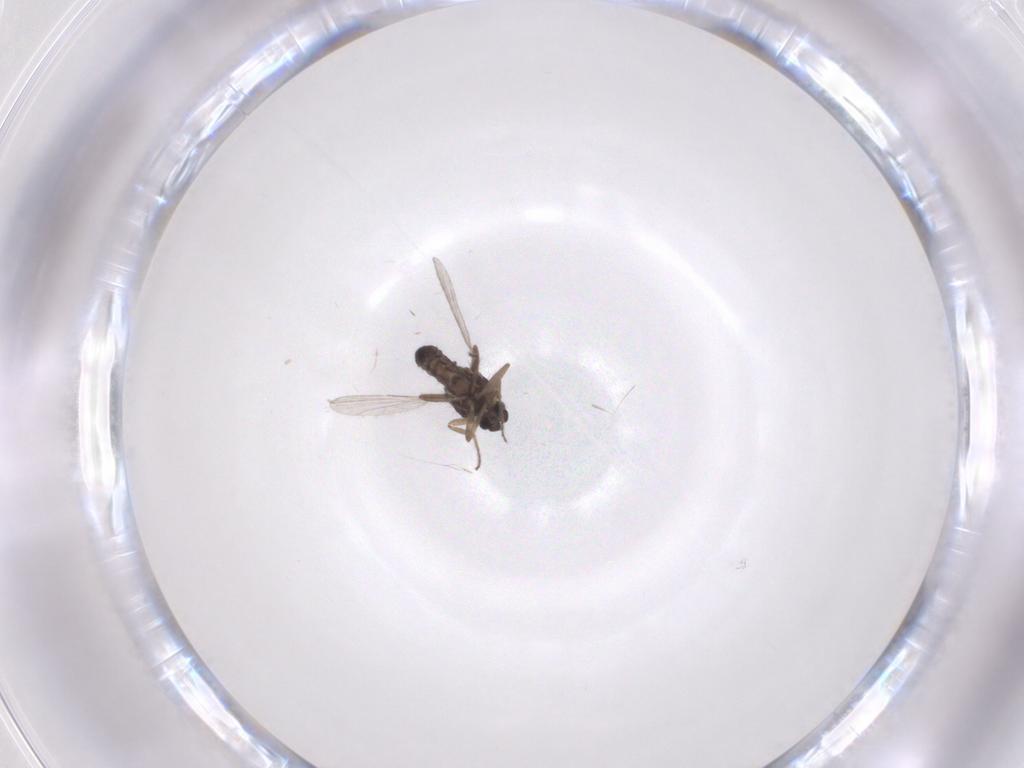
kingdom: Animalia
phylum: Arthropoda
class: Insecta
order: Diptera
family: Ceratopogonidae
